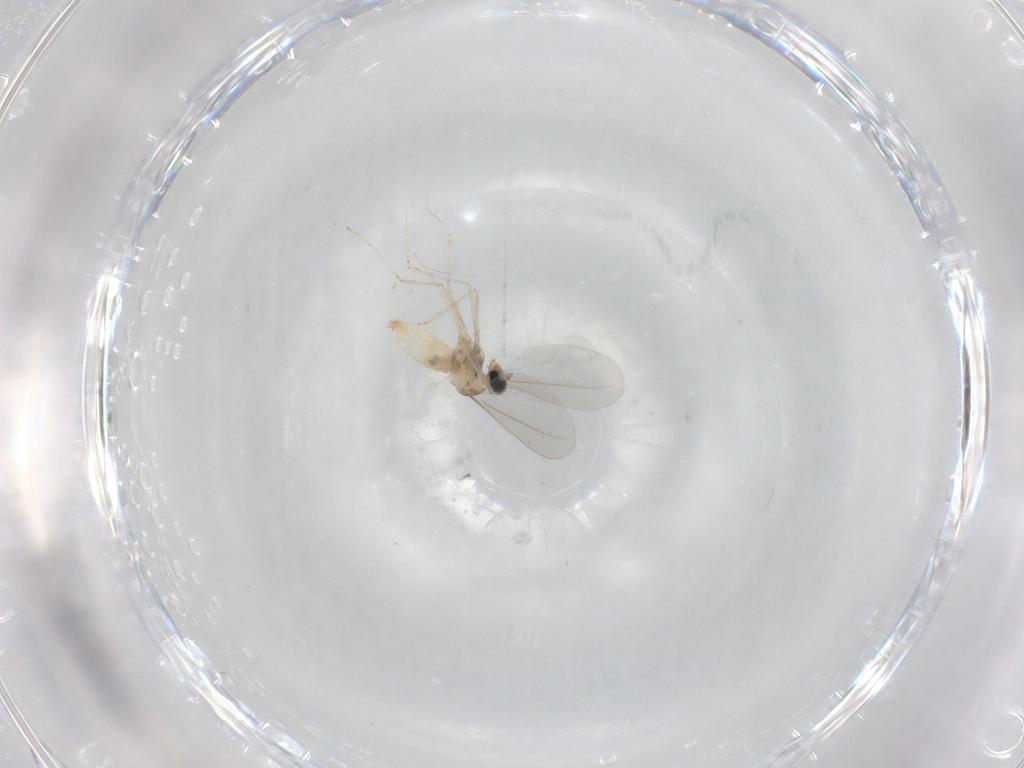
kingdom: Animalia
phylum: Arthropoda
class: Insecta
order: Diptera
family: Cecidomyiidae
